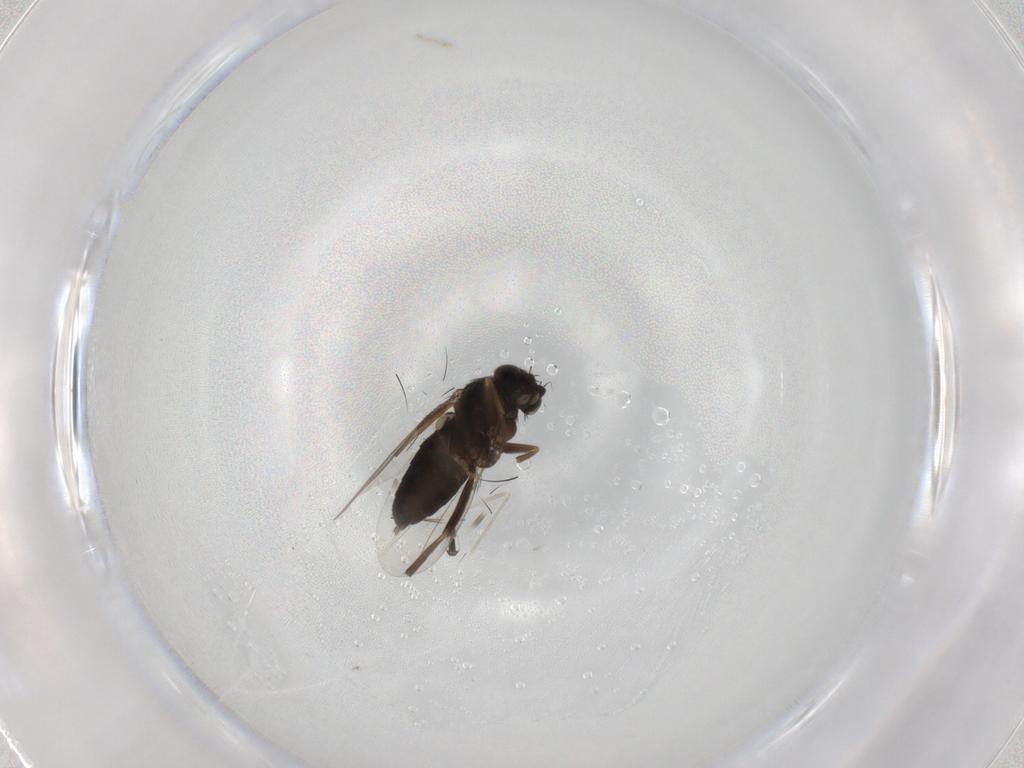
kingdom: Animalia
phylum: Arthropoda
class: Insecta
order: Diptera
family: Phoridae
